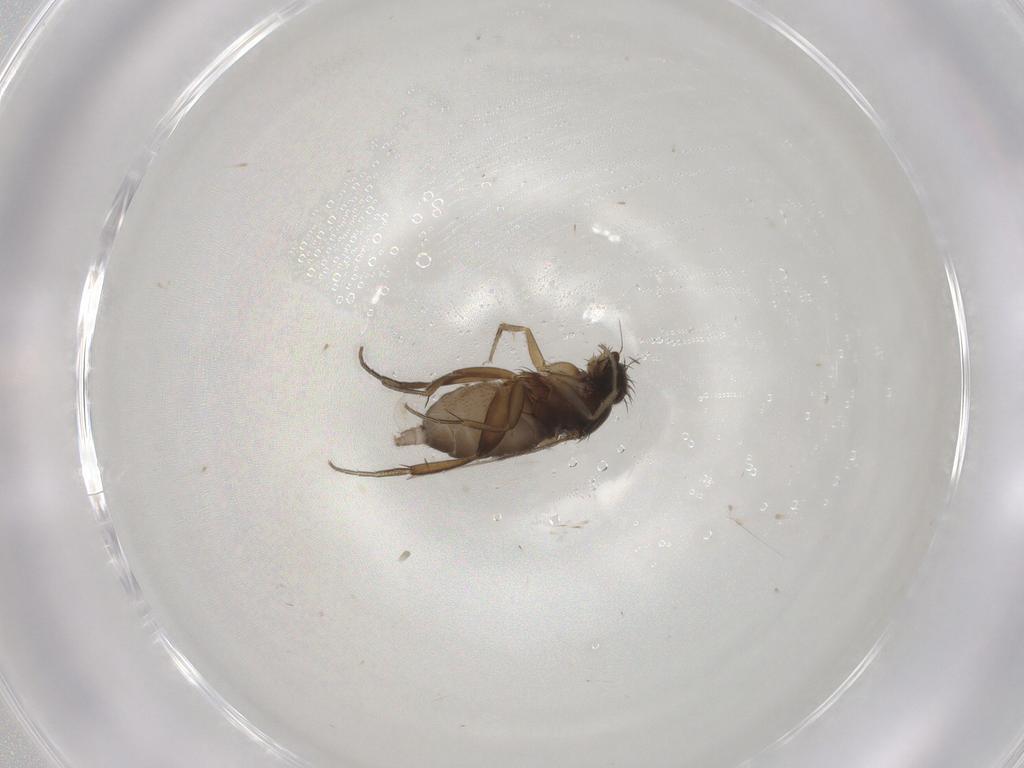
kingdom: Animalia
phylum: Arthropoda
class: Insecta
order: Diptera
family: Phoridae
